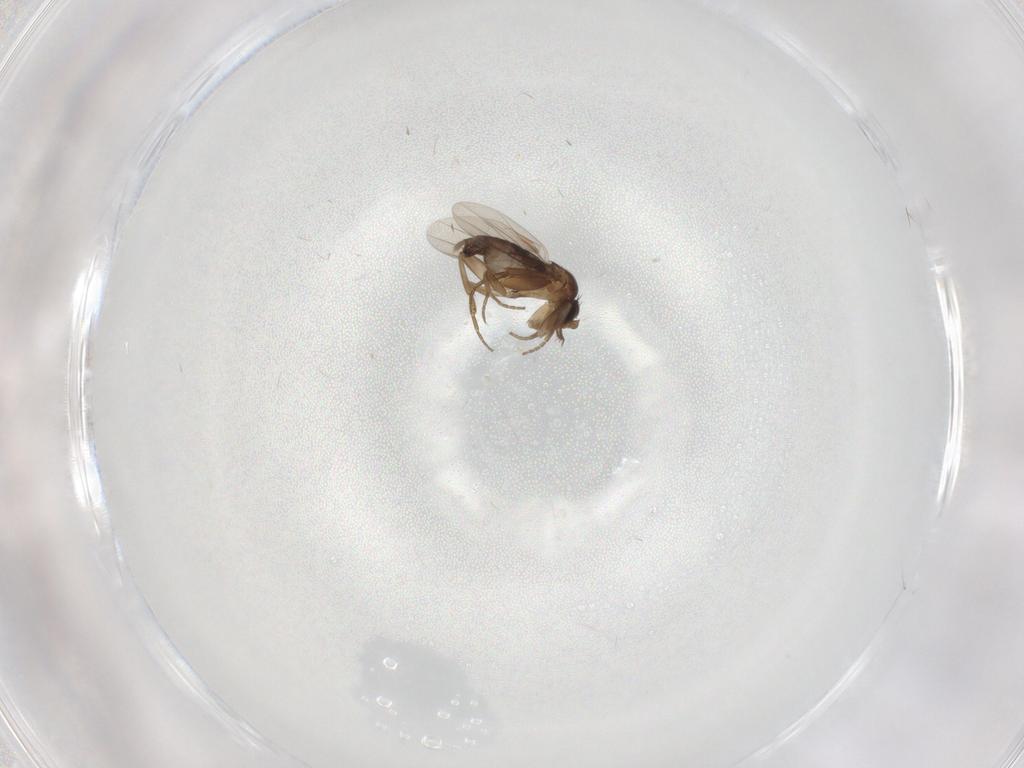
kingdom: Animalia
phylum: Arthropoda
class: Insecta
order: Diptera
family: Phoridae
